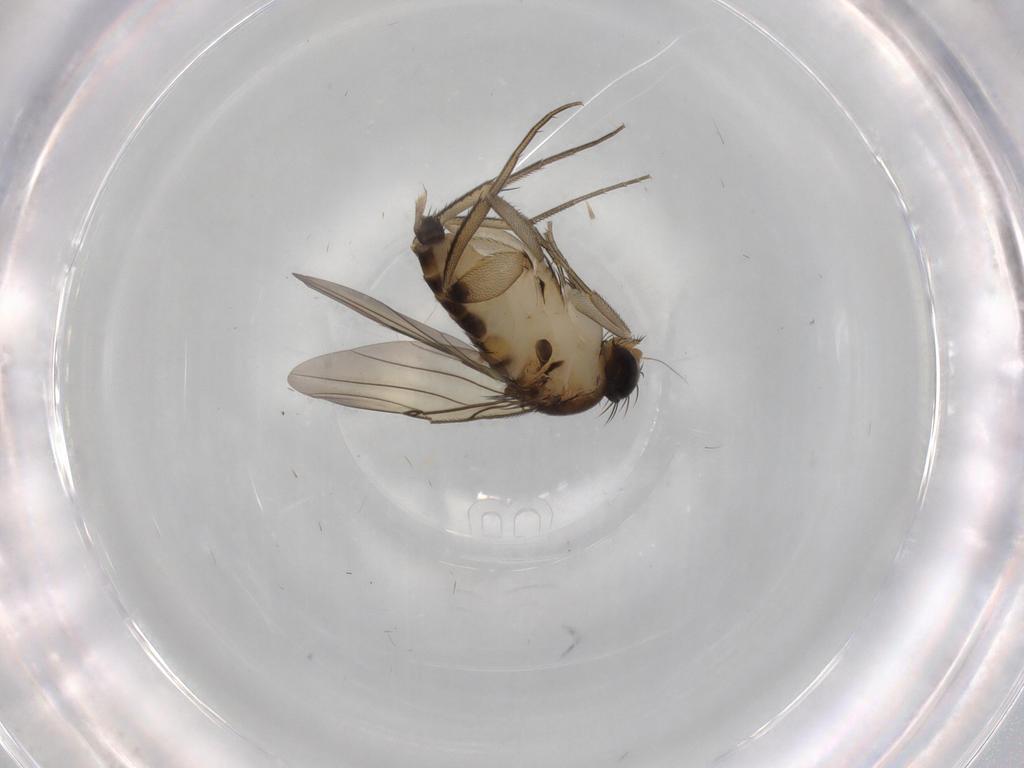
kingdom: Animalia
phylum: Arthropoda
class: Insecta
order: Diptera
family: Phoridae
